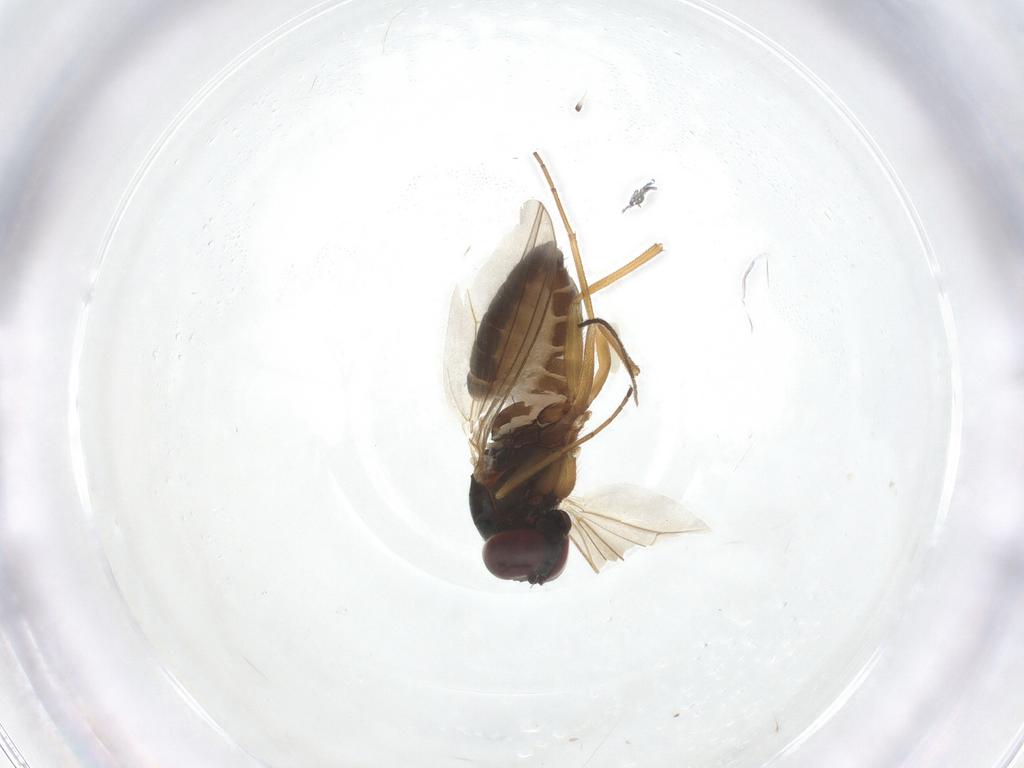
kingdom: Animalia
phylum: Arthropoda
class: Insecta
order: Diptera
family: Dolichopodidae
